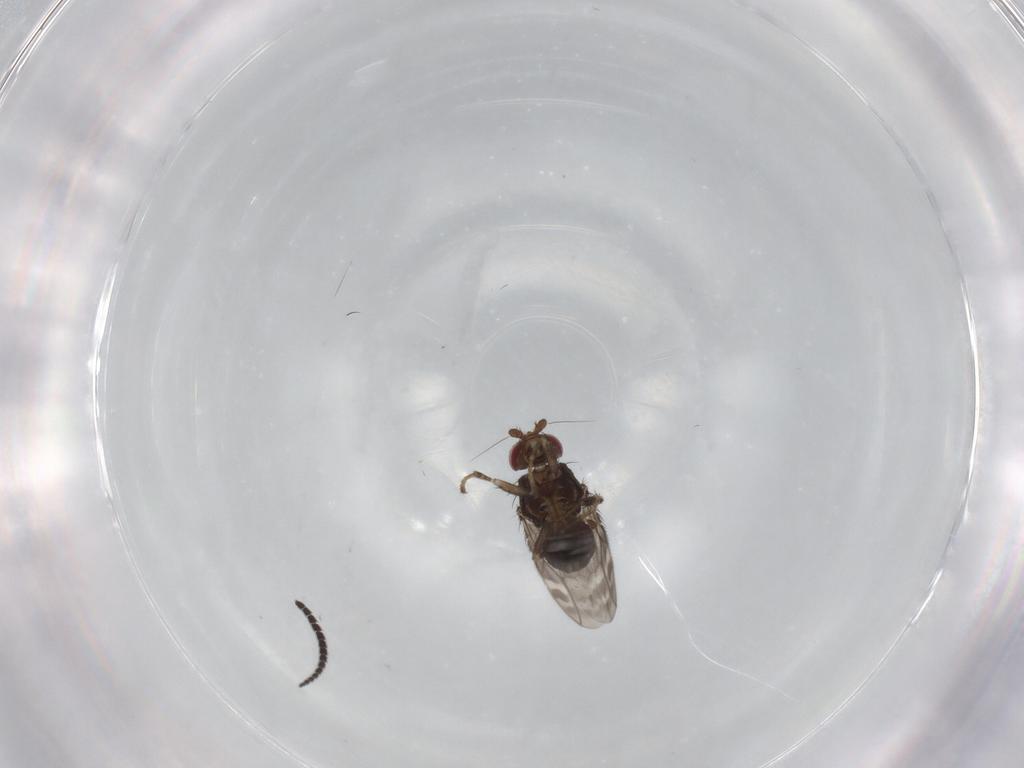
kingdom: Animalia
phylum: Arthropoda
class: Insecta
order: Diptera
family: Sphaeroceridae
